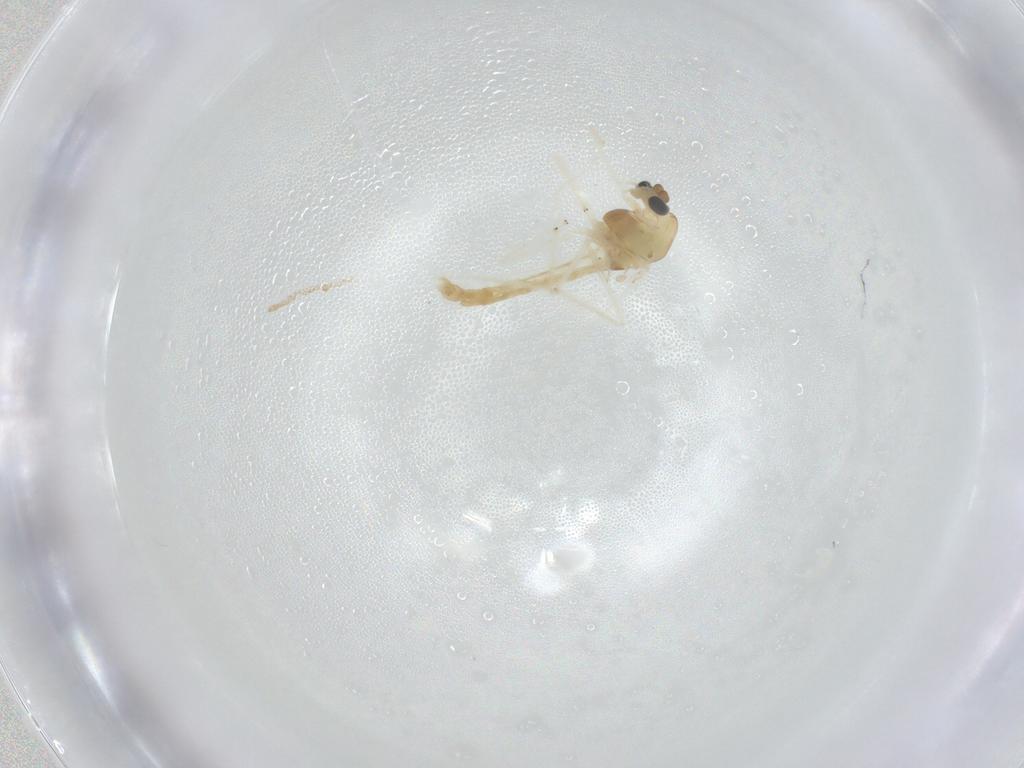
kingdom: Animalia
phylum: Arthropoda
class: Insecta
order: Diptera
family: Chironomidae
